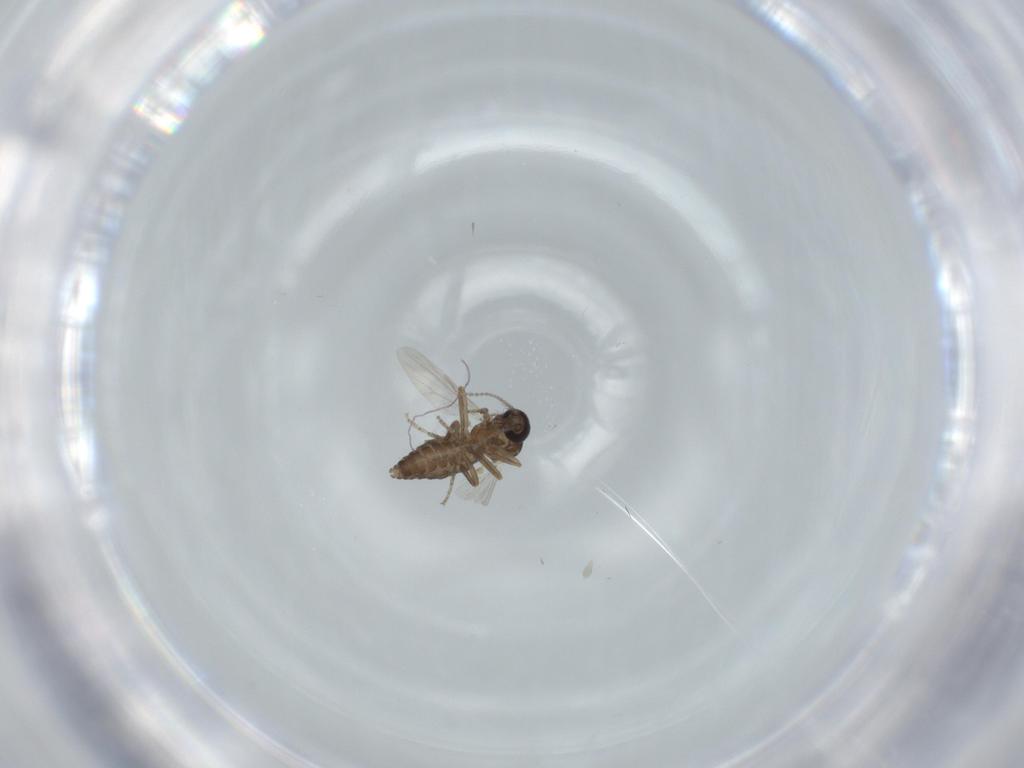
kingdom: Animalia
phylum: Arthropoda
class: Insecta
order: Diptera
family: Ceratopogonidae
